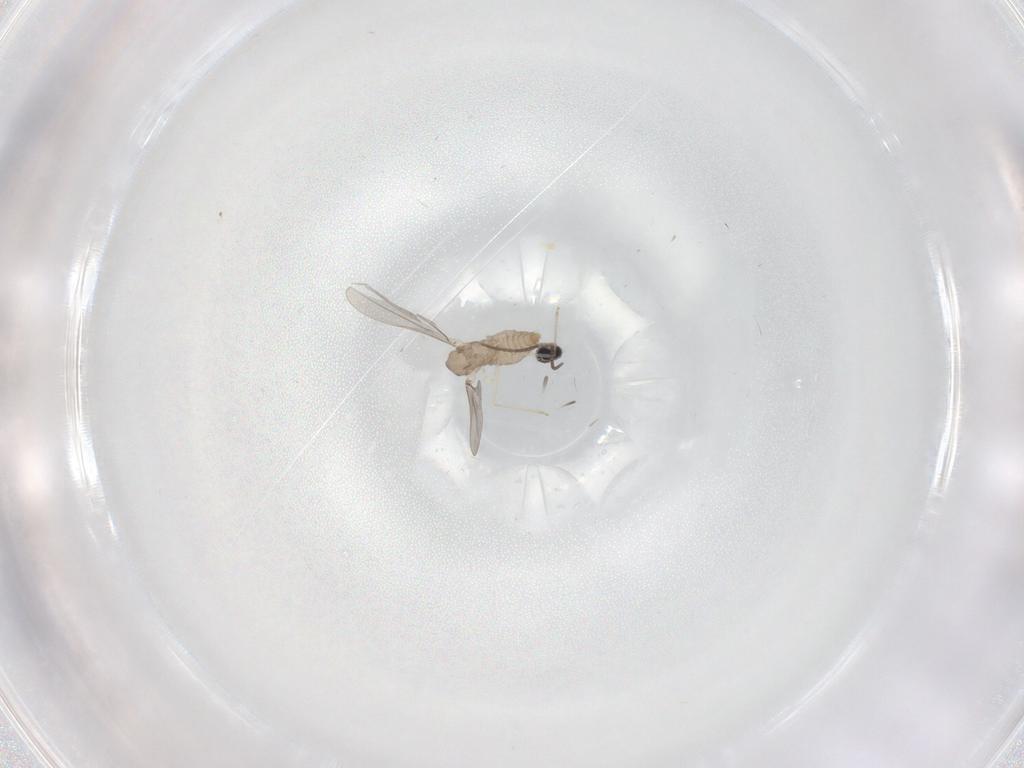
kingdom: Animalia
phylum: Arthropoda
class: Insecta
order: Diptera
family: Cecidomyiidae
